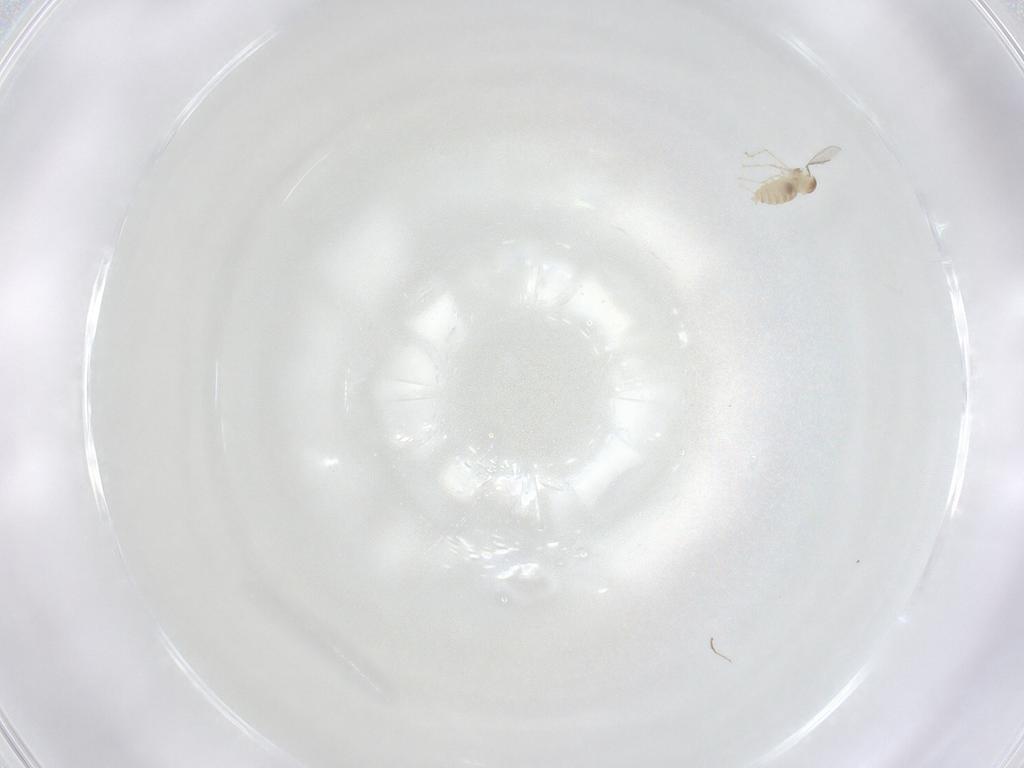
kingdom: Animalia
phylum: Arthropoda
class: Insecta
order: Diptera
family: Cecidomyiidae
